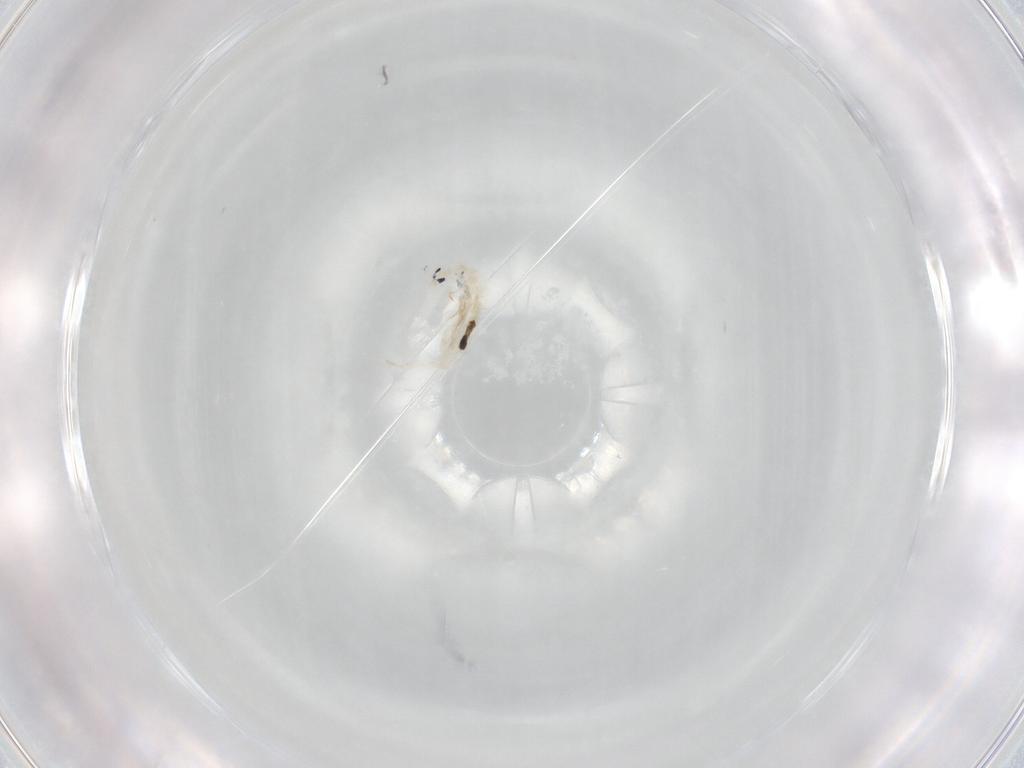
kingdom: Animalia
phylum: Arthropoda
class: Collembola
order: Entomobryomorpha
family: Entomobryidae
